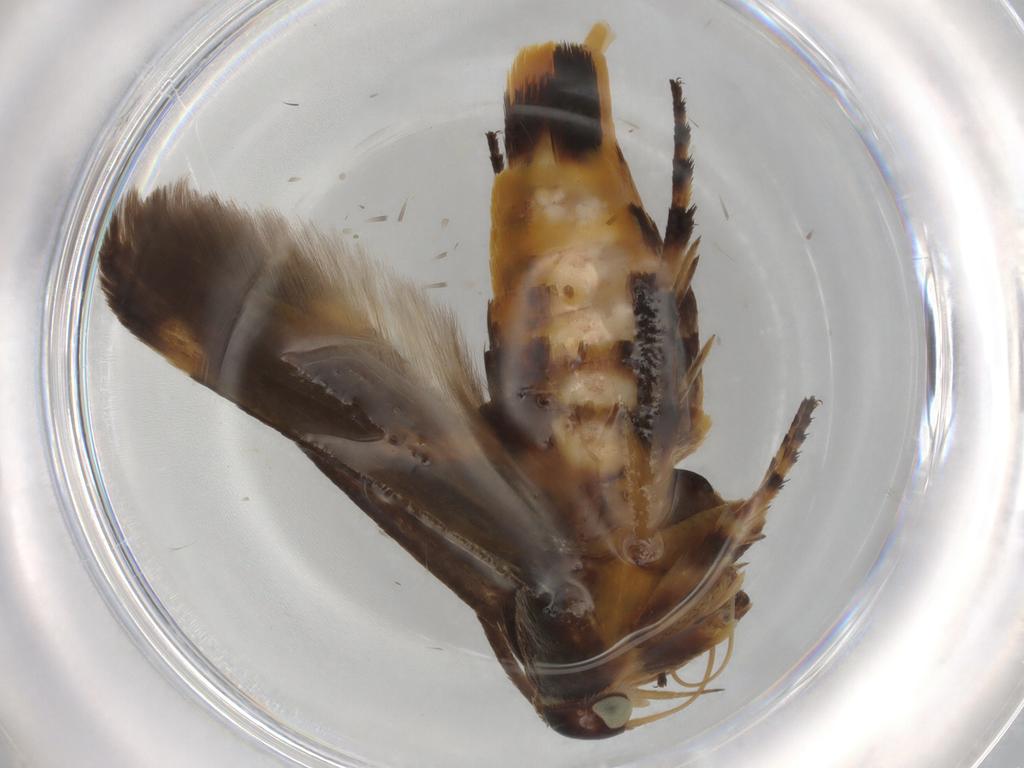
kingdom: Animalia
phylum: Arthropoda
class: Insecta
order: Lepidoptera
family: Scythrididae
